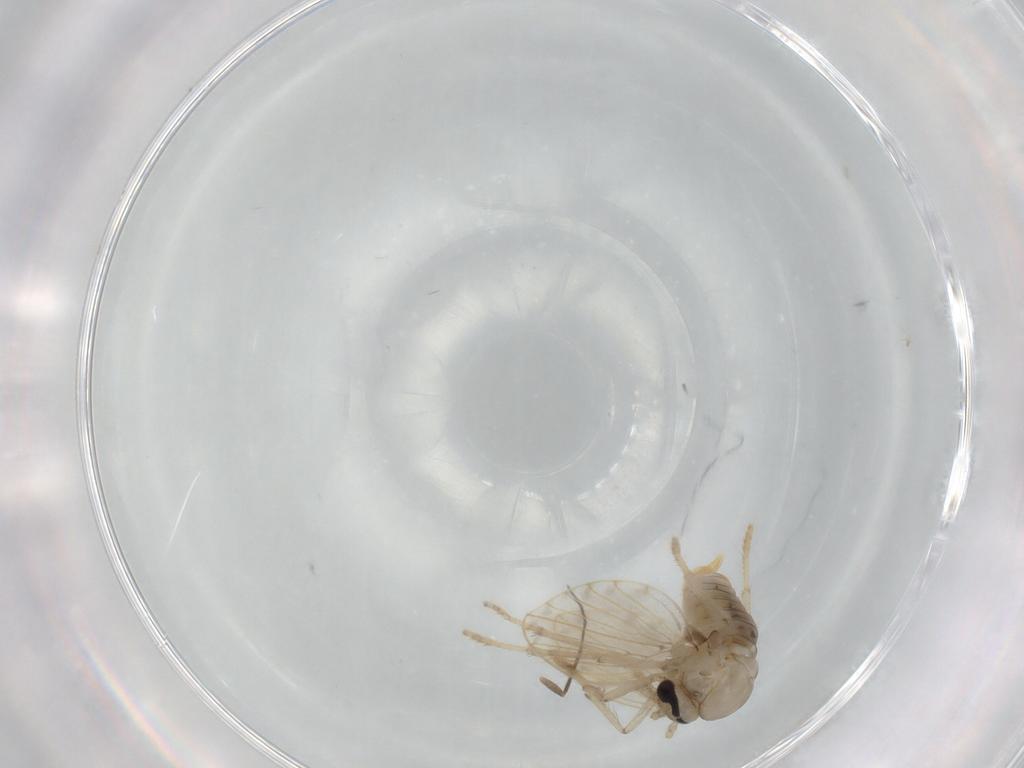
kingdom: Animalia
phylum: Arthropoda
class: Insecta
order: Diptera
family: Psychodidae
